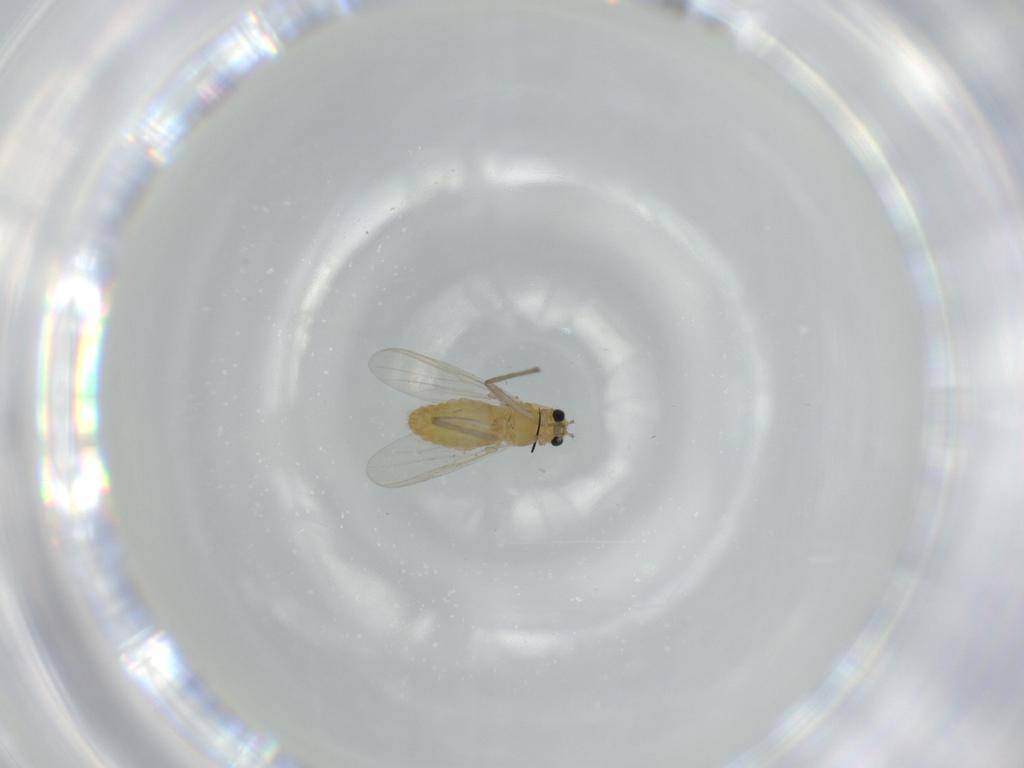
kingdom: Animalia
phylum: Arthropoda
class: Insecta
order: Diptera
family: Chironomidae
